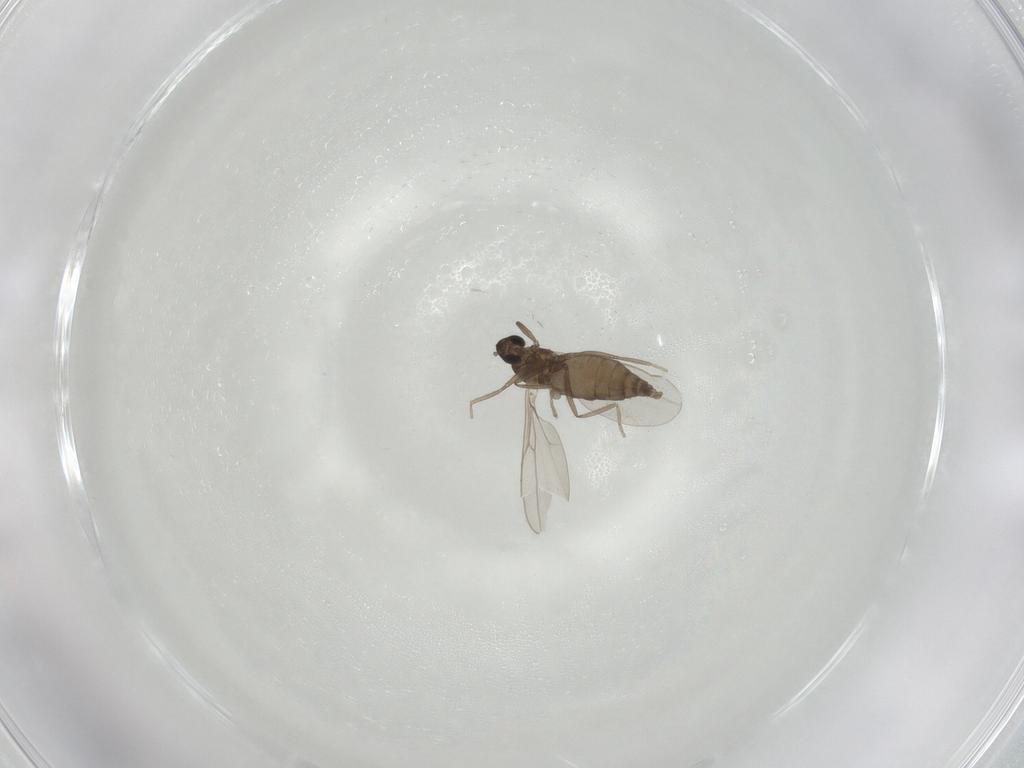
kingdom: Animalia
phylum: Arthropoda
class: Insecta
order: Diptera
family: Cecidomyiidae
